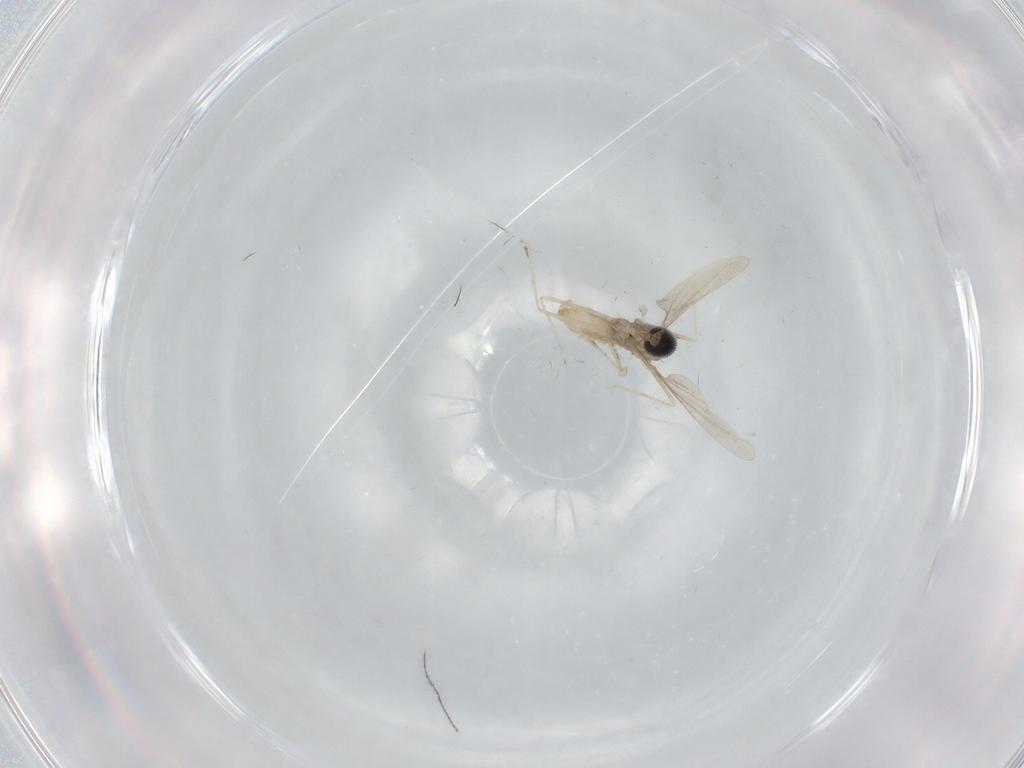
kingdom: Animalia
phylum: Arthropoda
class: Insecta
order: Diptera
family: Cecidomyiidae
